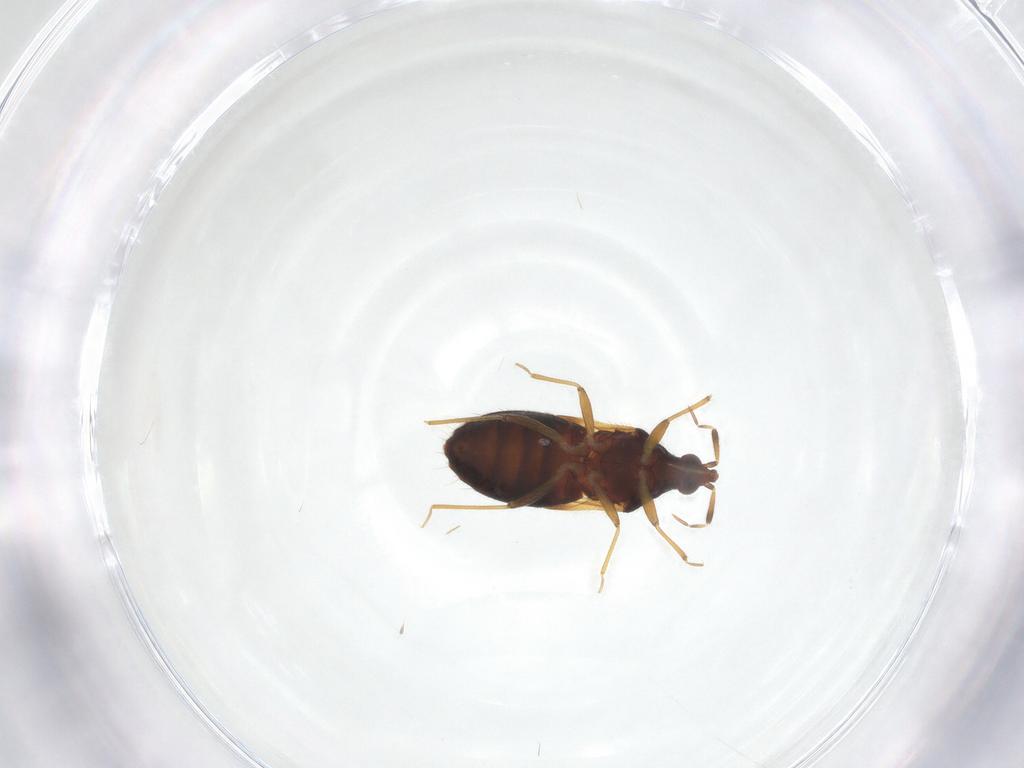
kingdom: Animalia
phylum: Arthropoda
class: Insecta
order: Hemiptera
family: Anthocoridae
